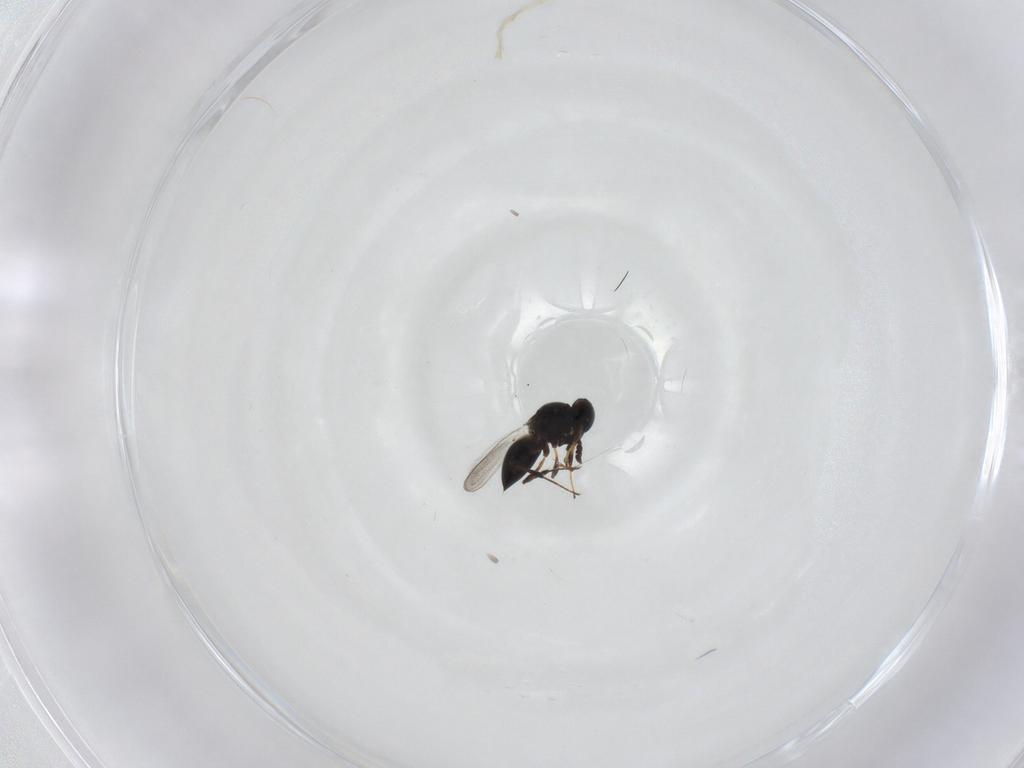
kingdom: Animalia
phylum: Arthropoda
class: Insecta
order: Hymenoptera
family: Platygastridae
